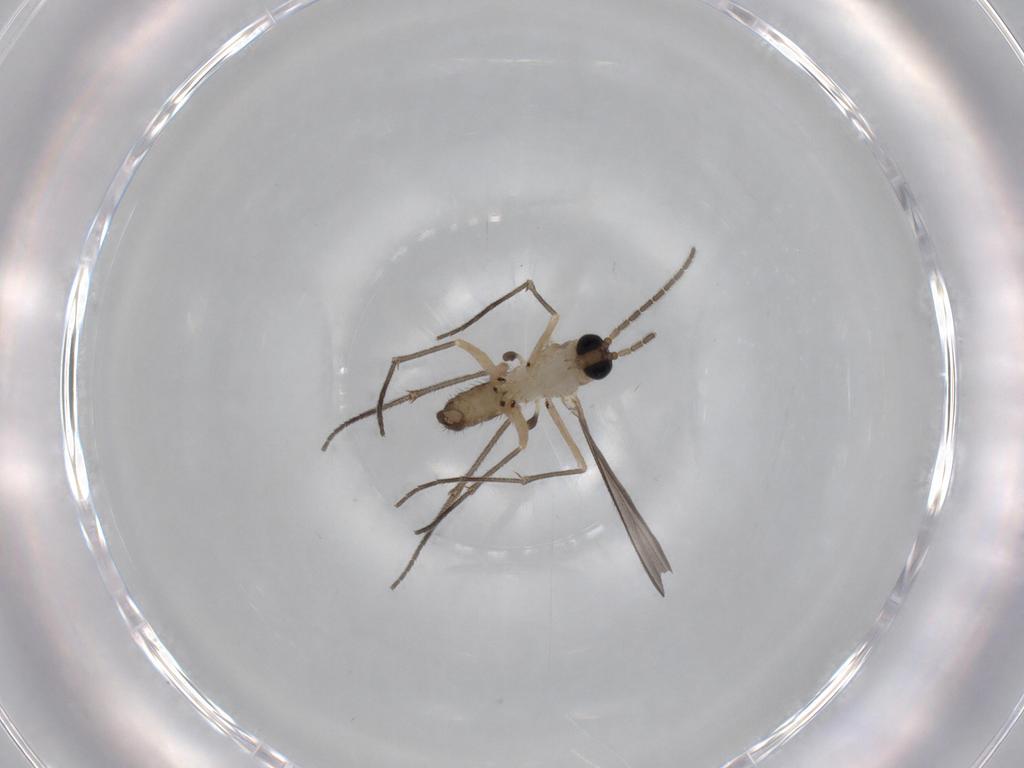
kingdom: Animalia
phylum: Arthropoda
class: Insecta
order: Diptera
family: Sciaridae
